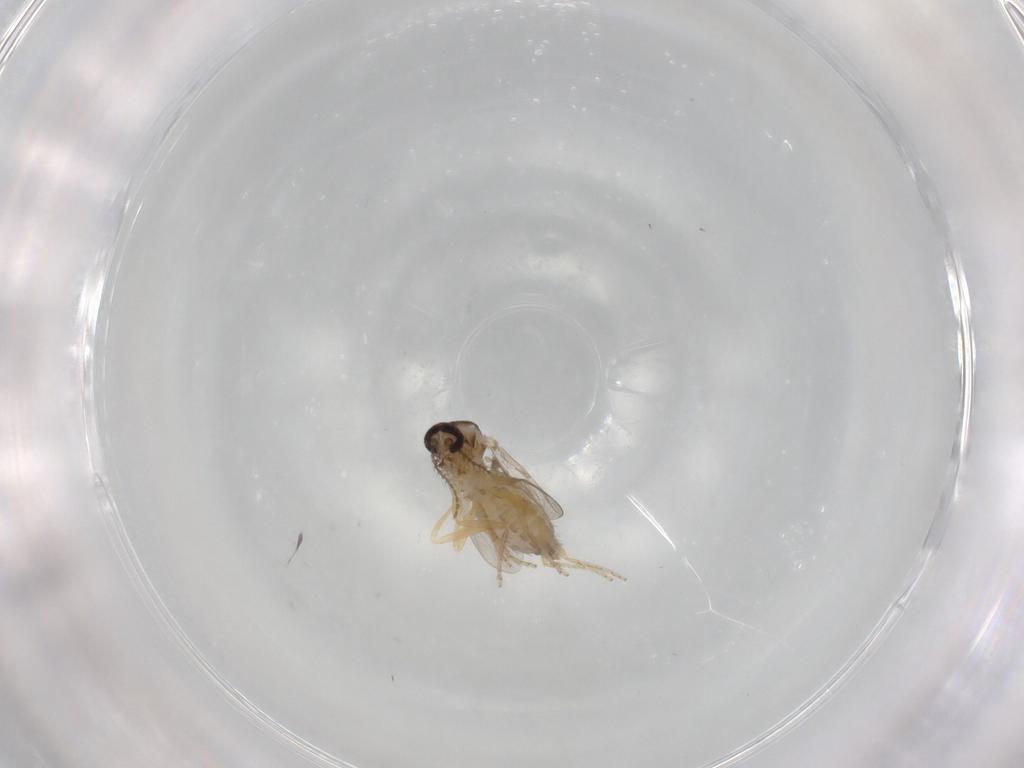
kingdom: Animalia
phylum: Arthropoda
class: Insecta
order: Diptera
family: Ceratopogonidae
